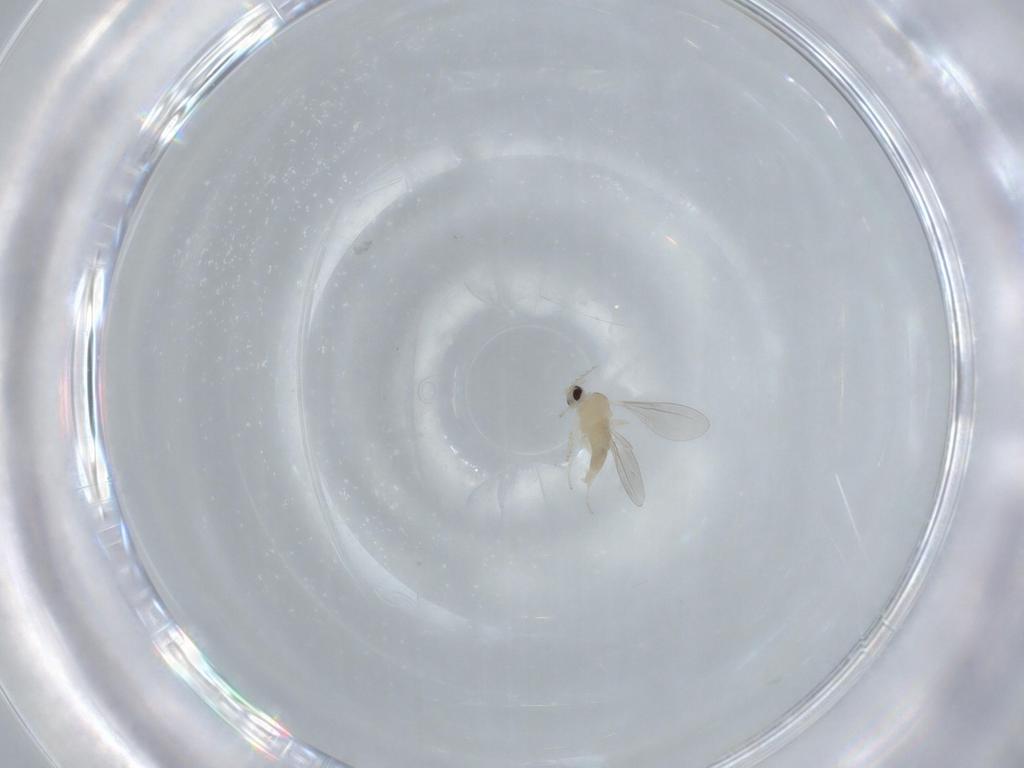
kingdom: Animalia
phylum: Arthropoda
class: Insecta
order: Diptera
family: Cecidomyiidae
